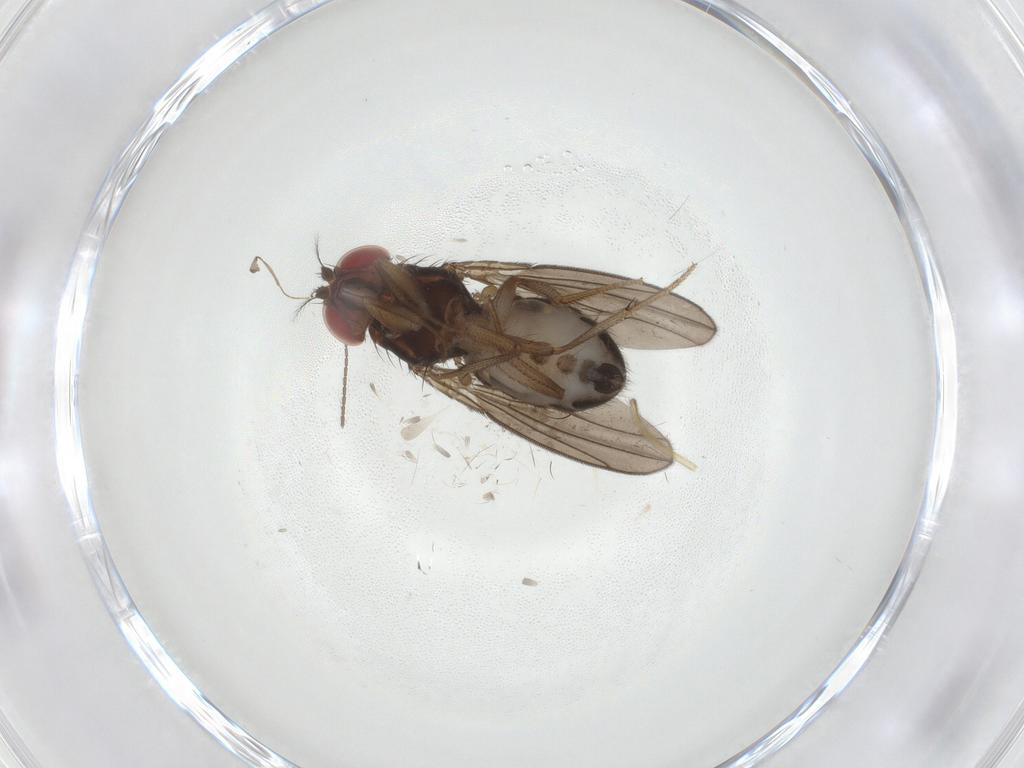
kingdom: Animalia
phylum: Arthropoda
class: Insecta
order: Diptera
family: Drosophilidae
